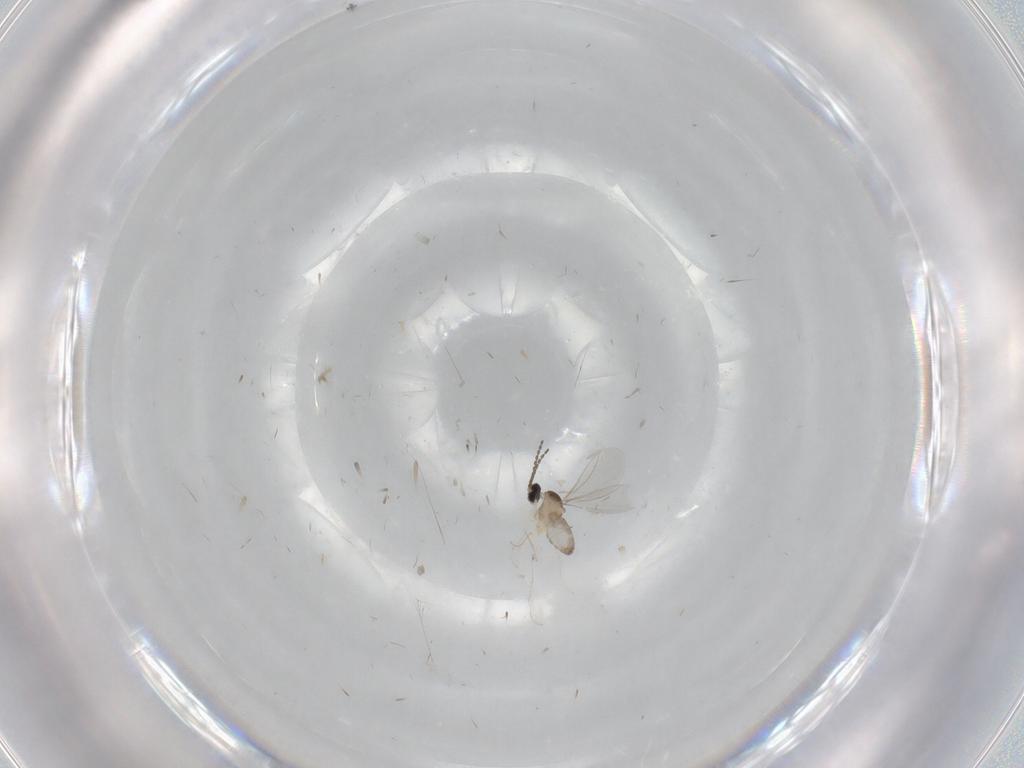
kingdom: Animalia
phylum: Arthropoda
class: Insecta
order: Diptera
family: Cecidomyiidae
